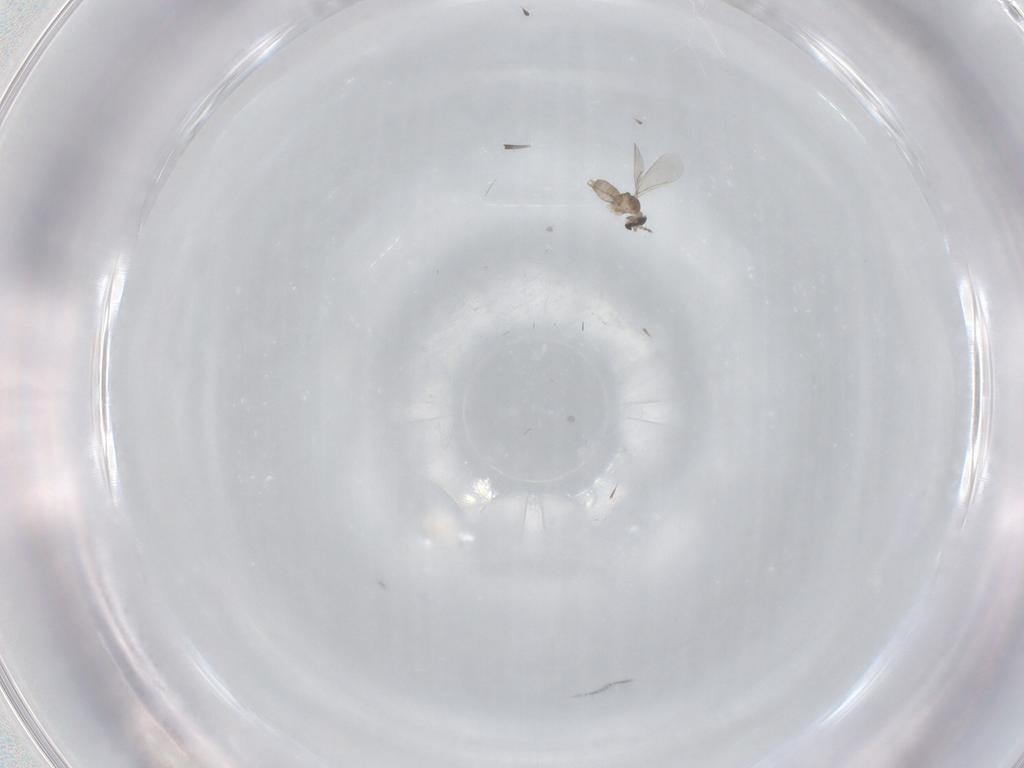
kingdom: Animalia
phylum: Arthropoda
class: Insecta
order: Diptera
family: Cecidomyiidae
